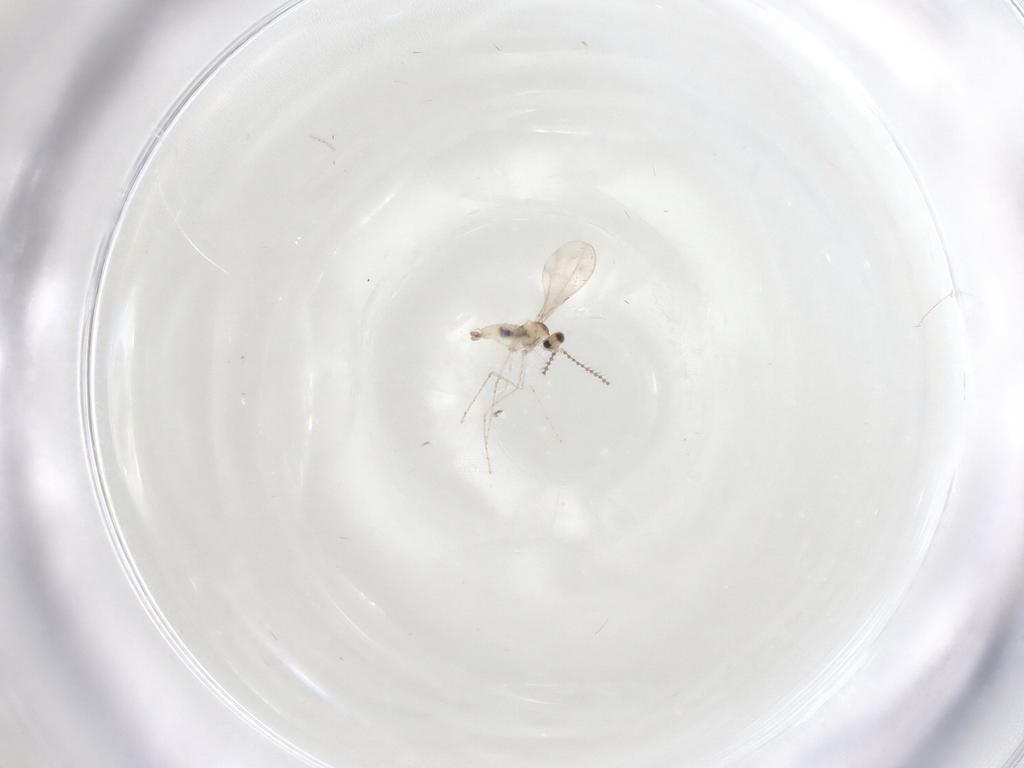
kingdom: Animalia
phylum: Arthropoda
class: Insecta
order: Diptera
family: Cecidomyiidae
